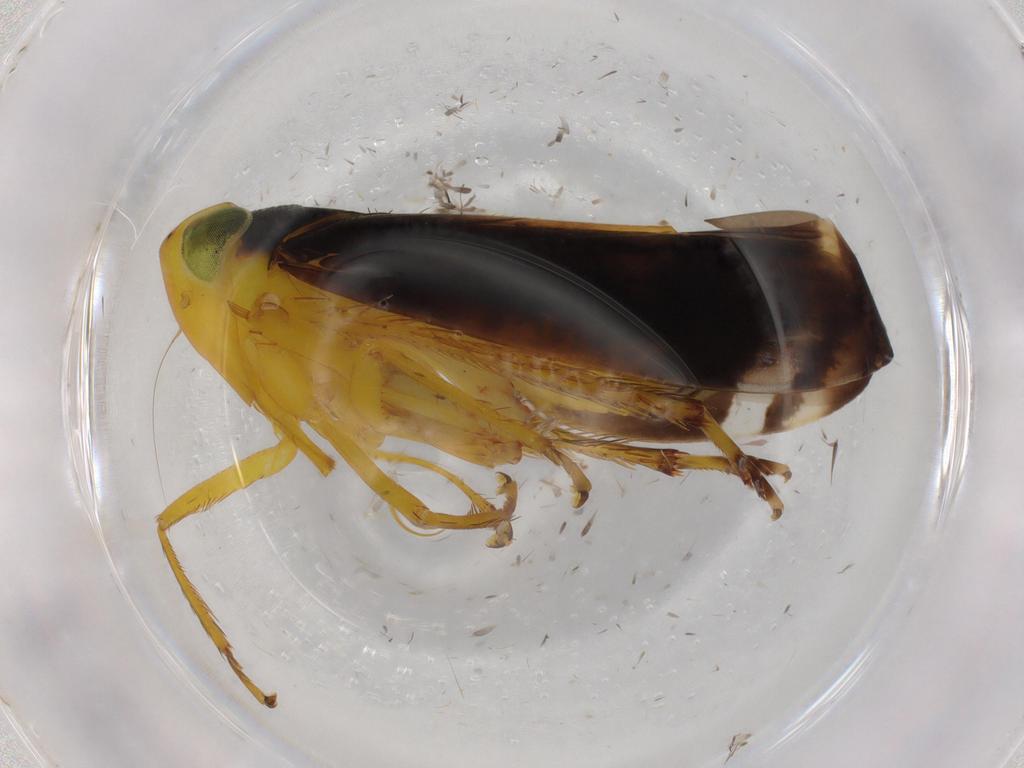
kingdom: Animalia
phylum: Arthropoda
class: Insecta
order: Hemiptera
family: Cicadellidae
